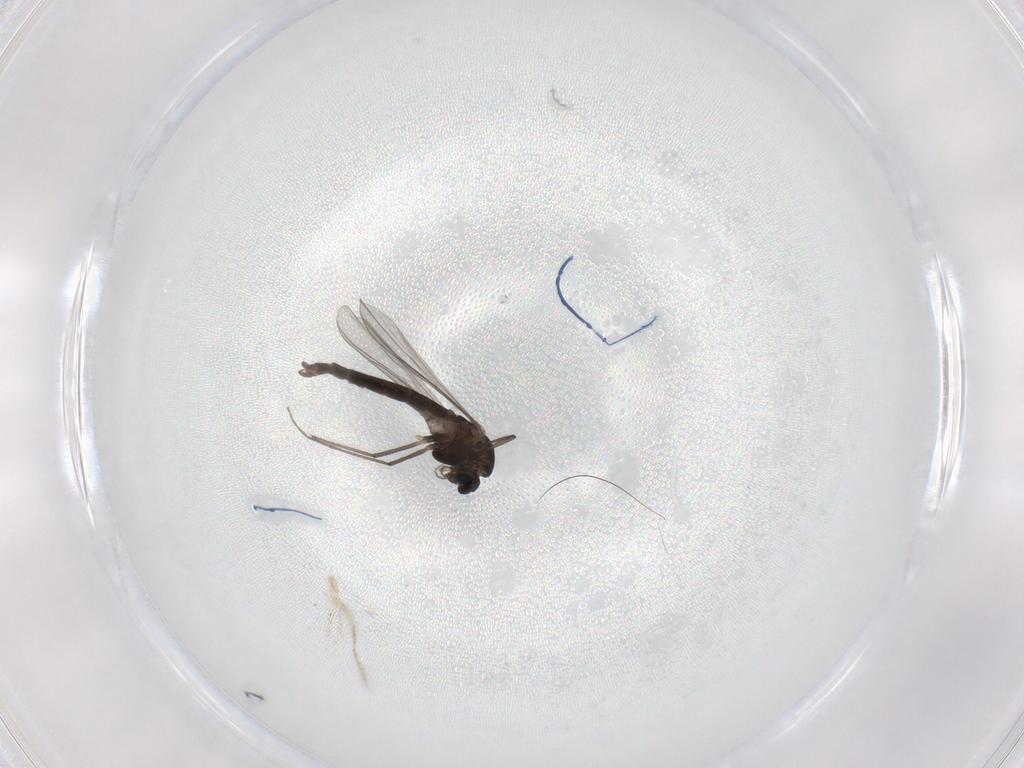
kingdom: Animalia
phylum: Arthropoda
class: Insecta
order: Diptera
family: Chironomidae
